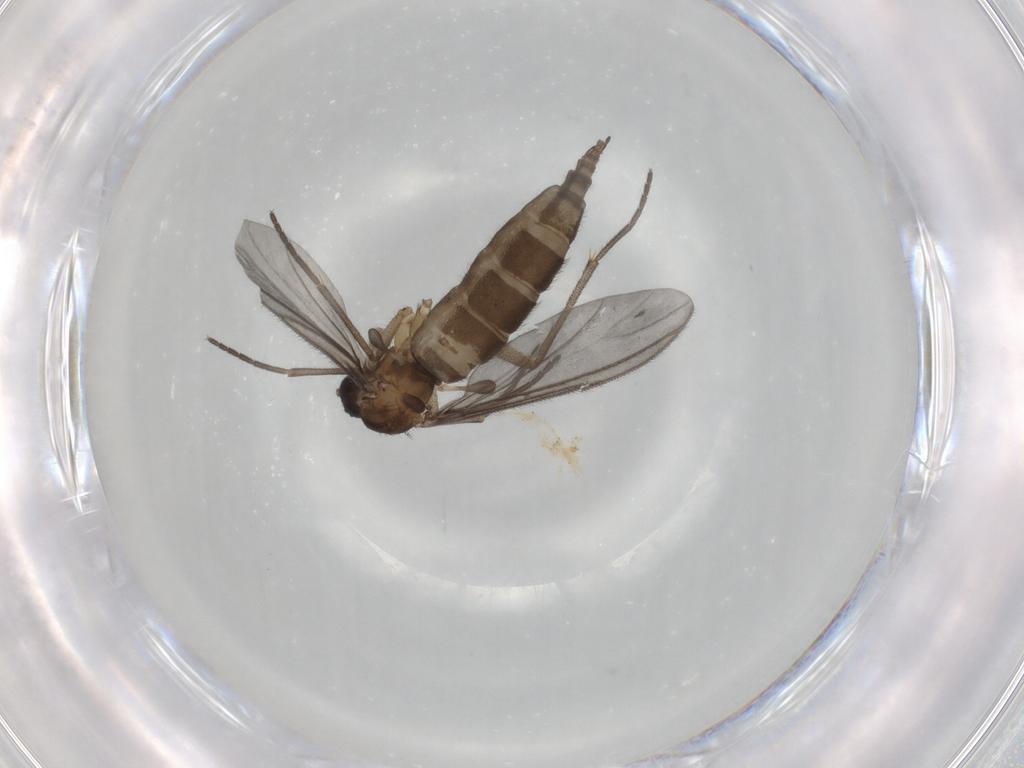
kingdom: Animalia
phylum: Arthropoda
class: Insecta
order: Diptera
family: Sciaridae
